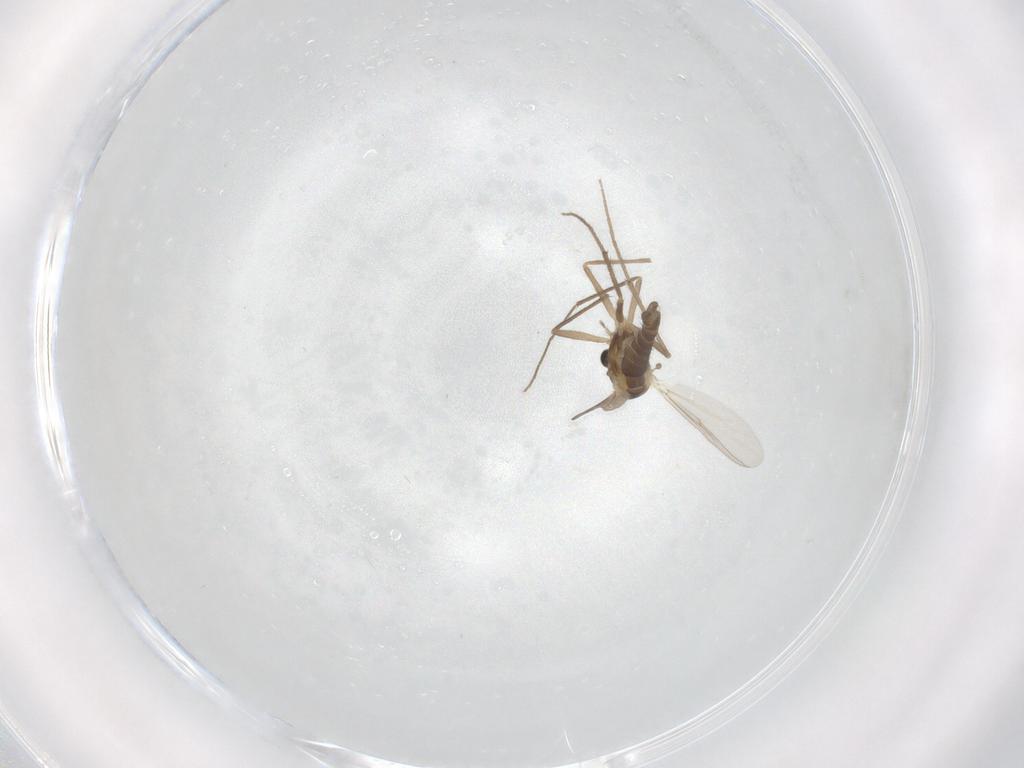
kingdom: Animalia
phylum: Arthropoda
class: Insecta
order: Diptera
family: Chironomidae
